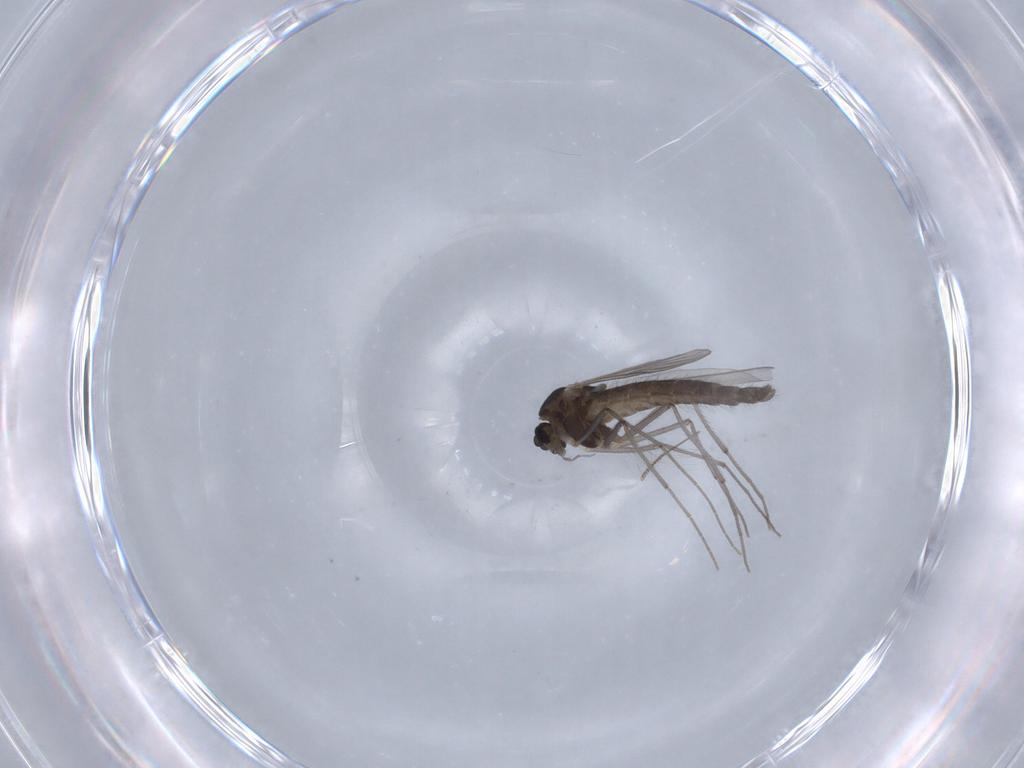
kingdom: Animalia
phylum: Arthropoda
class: Insecta
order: Diptera
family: Chironomidae
